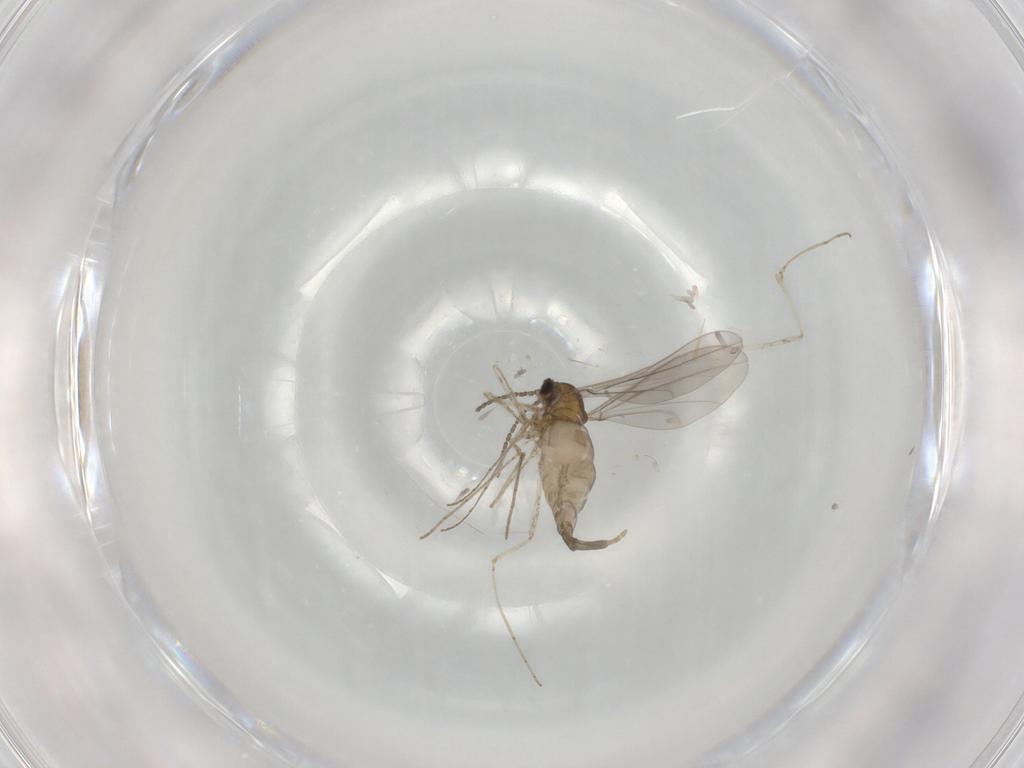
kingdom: Animalia
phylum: Arthropoda
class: Insecta
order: Diptera
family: Cecidomyiidae
